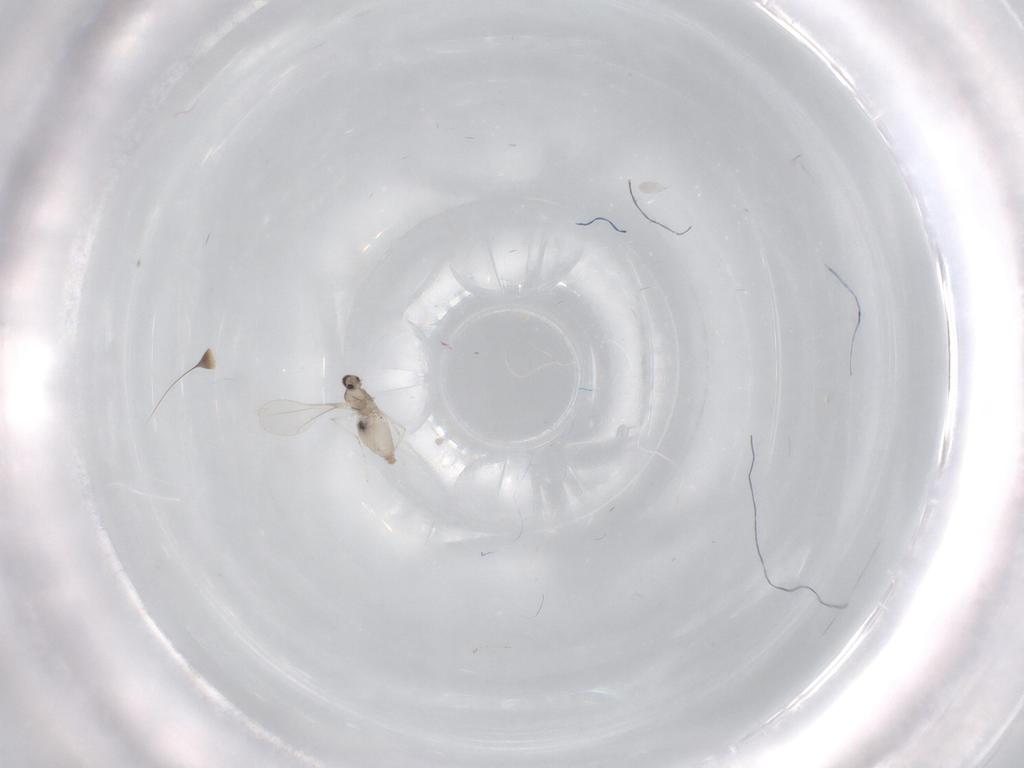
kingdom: Animalia
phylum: Arthropoda
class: Insecta
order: Diptera
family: Cecidomyiidae
